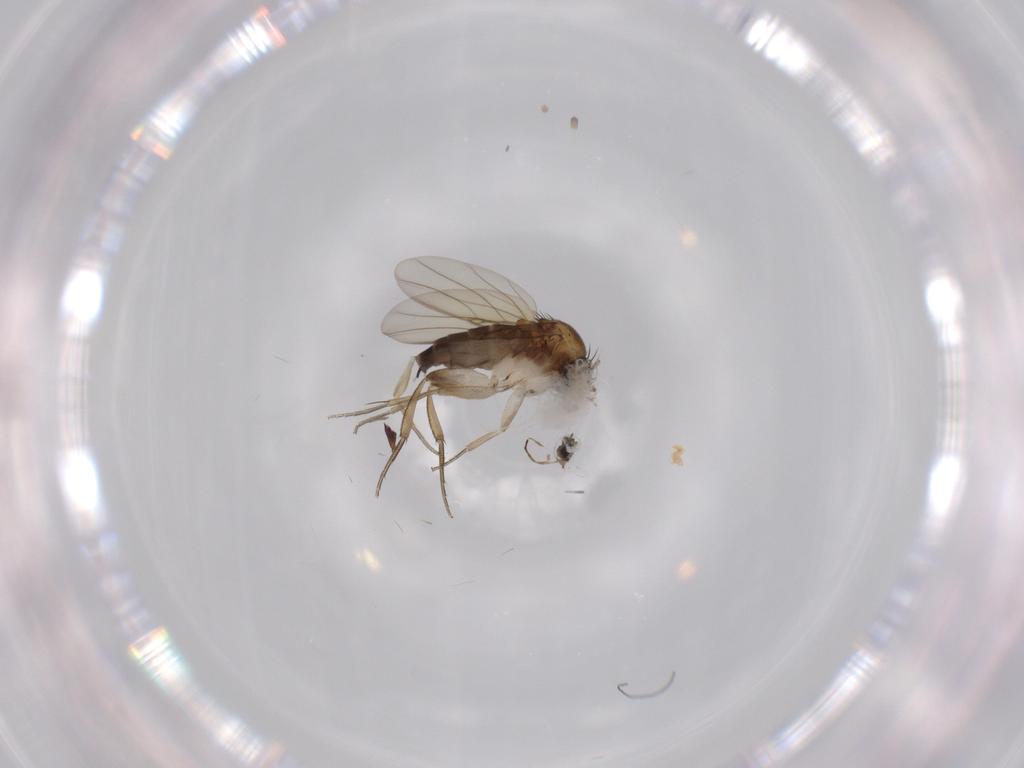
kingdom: Animalia
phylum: Arthropoda
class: Insecta
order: Diptera
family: Phoridae
